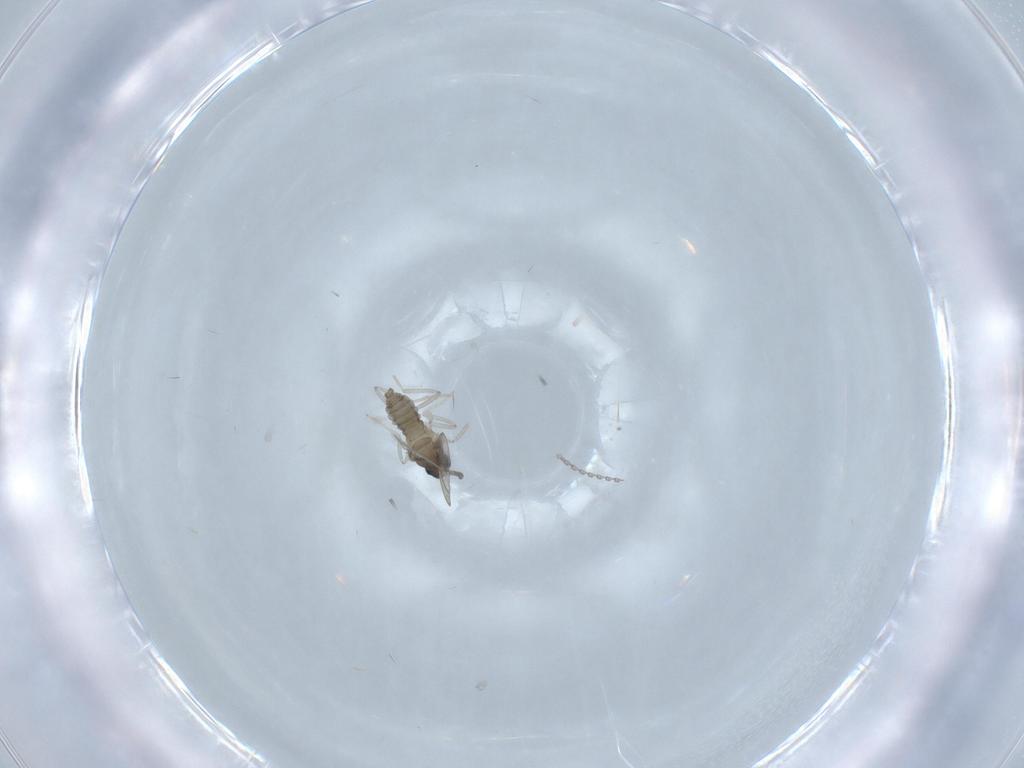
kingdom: Animalia
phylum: Arthropoda
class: Insecta
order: Diptera
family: Cecidomyiidae
